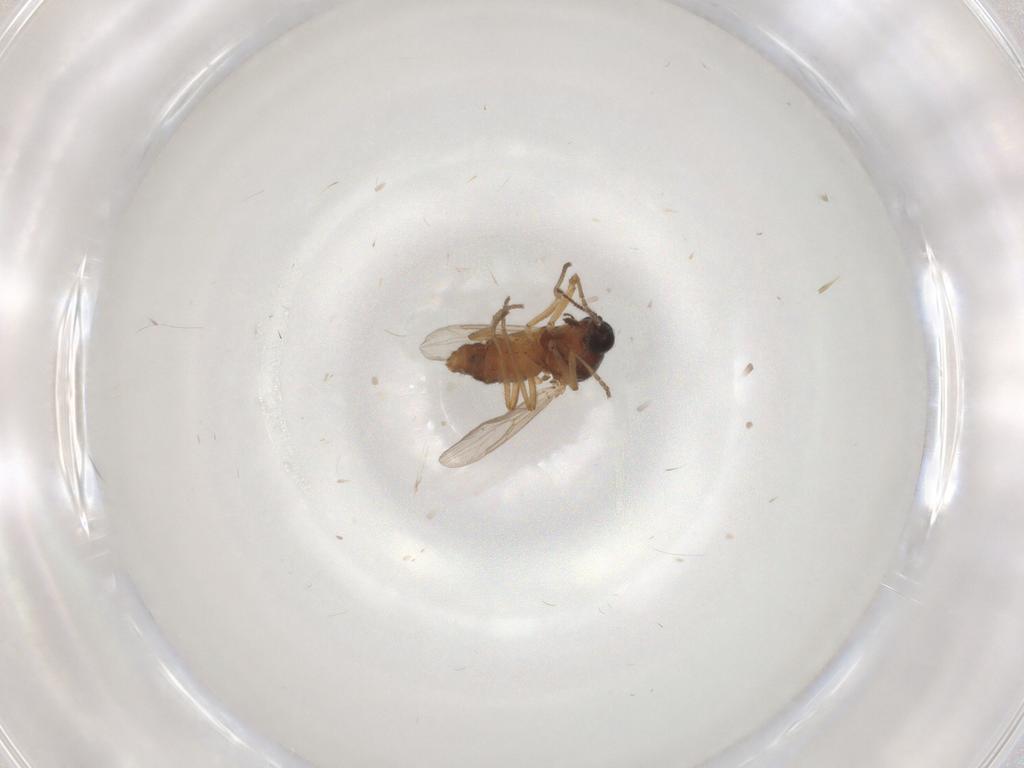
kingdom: Animalia
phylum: Arthropoda
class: Insecta
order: Diptera
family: Ceratopogonidae
